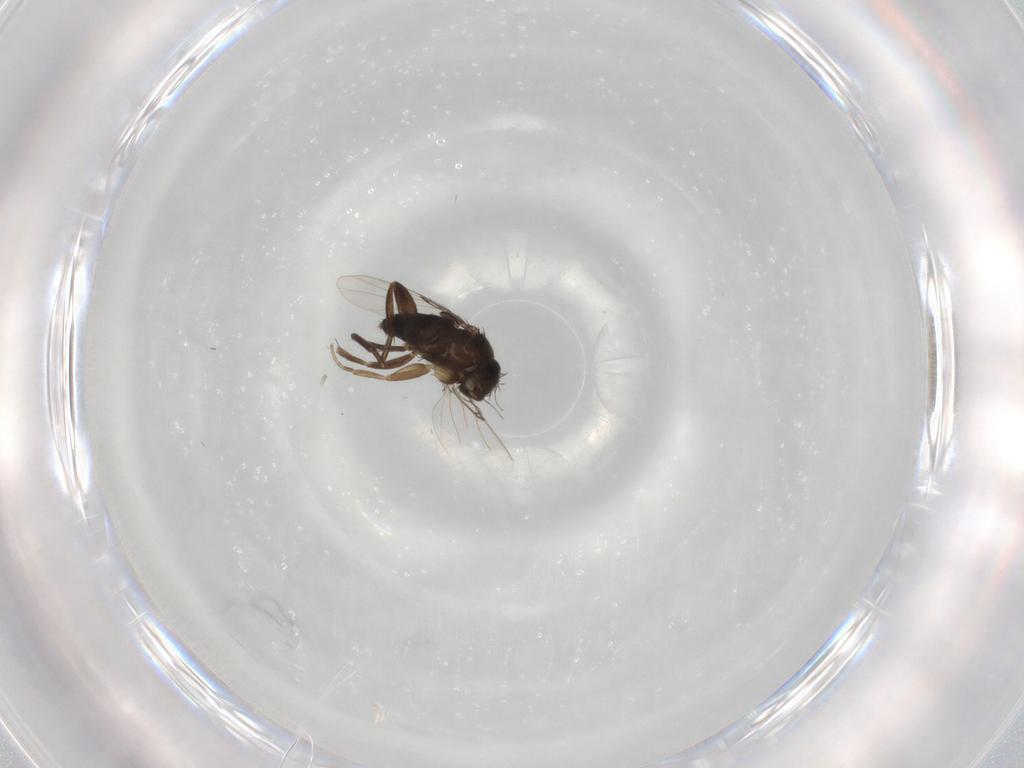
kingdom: Animalia
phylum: Arthropoda
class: Insecta
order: Diptera
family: Phoridae
